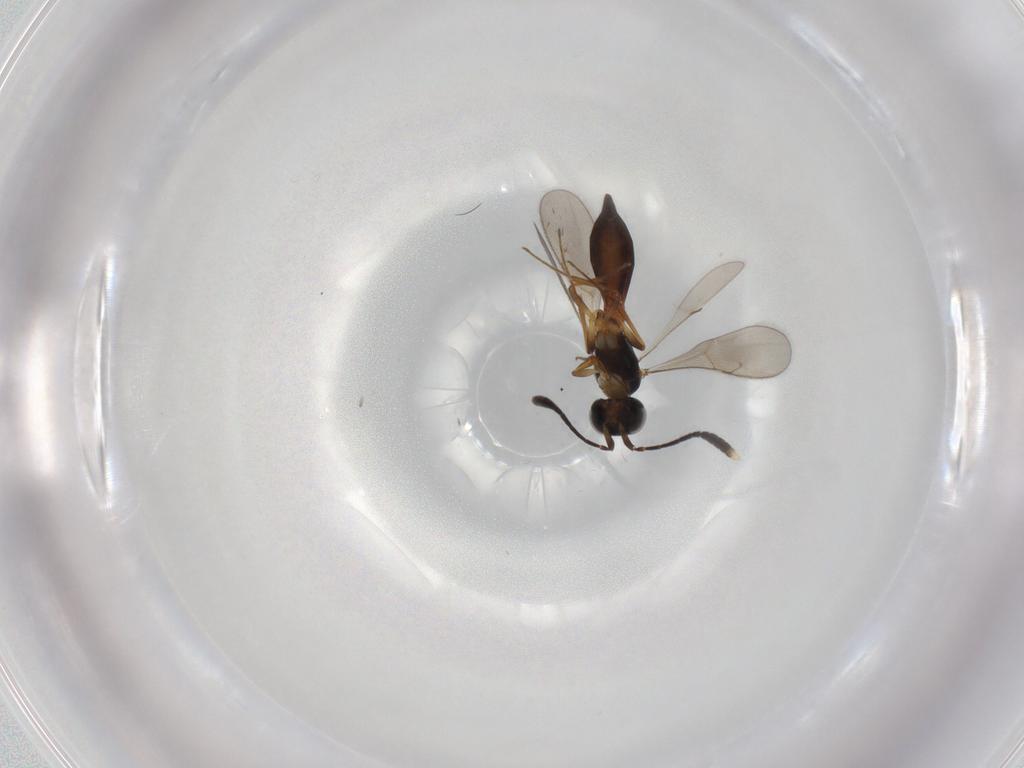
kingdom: Animalia
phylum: Arthropoda
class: Insecta
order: Hymenoptera
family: Scelionidae
